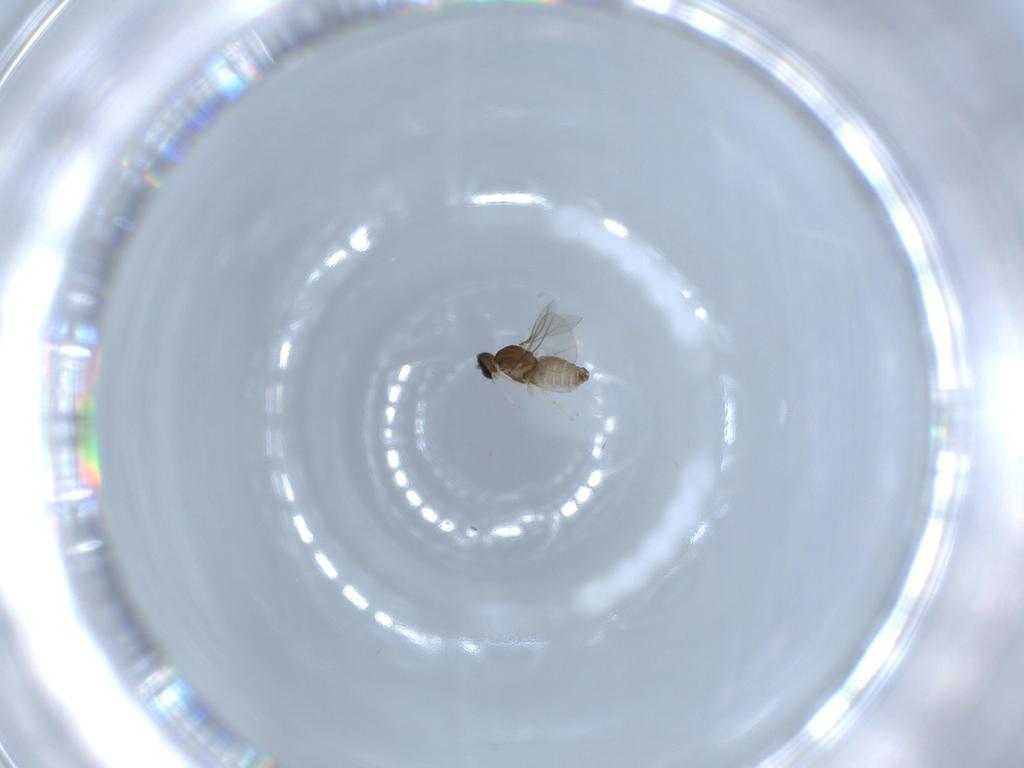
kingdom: Animalia
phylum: Arthropoda
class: Insecta
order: Diptera
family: Cecidomyiidae
